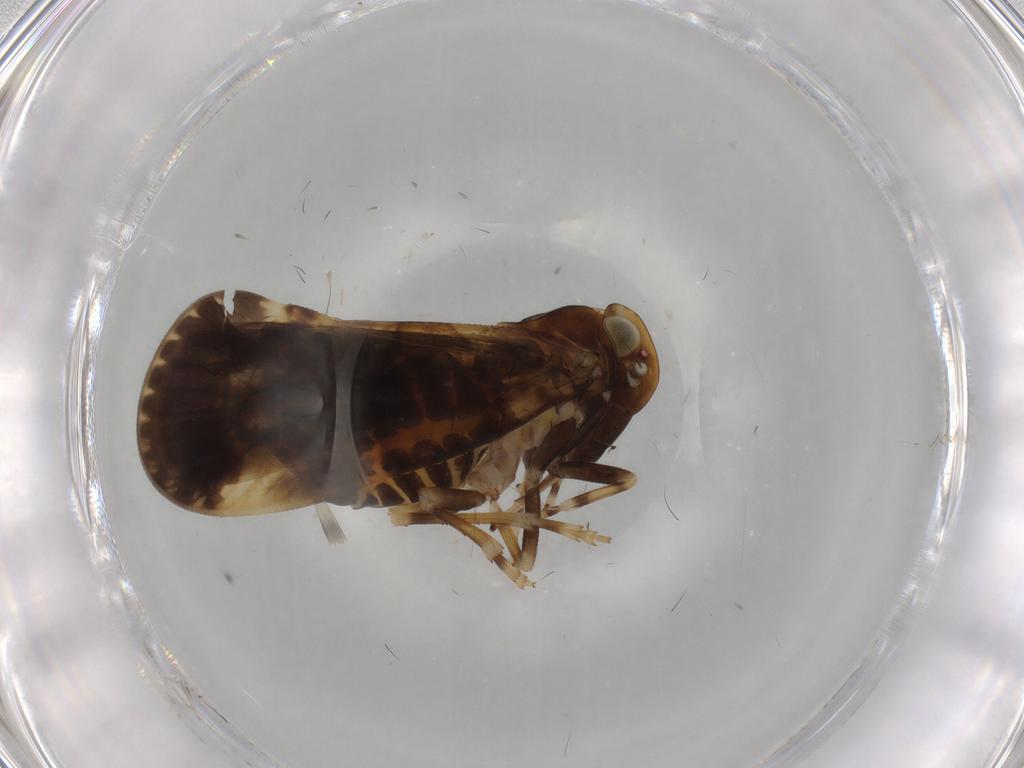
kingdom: Animalia
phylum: Arthropoda
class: Insecta
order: Hemiptera
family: Cixiidae
